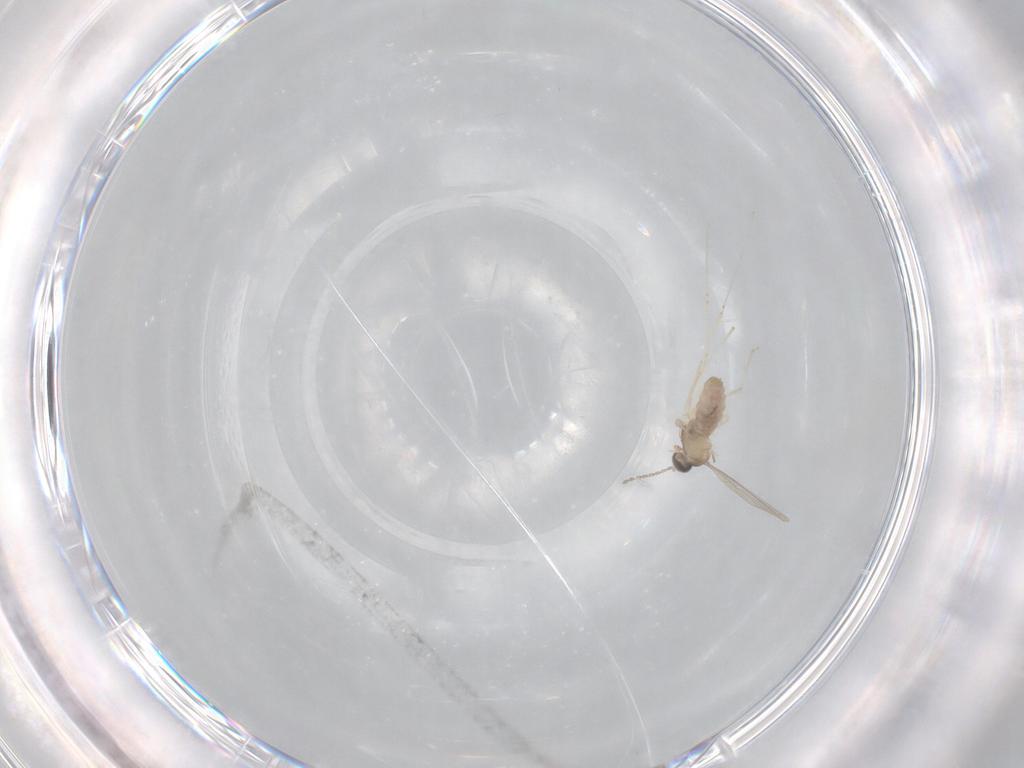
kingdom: Animalia
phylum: Arthropoda
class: Insecta
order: Diptera
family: Cecidomyiidae
